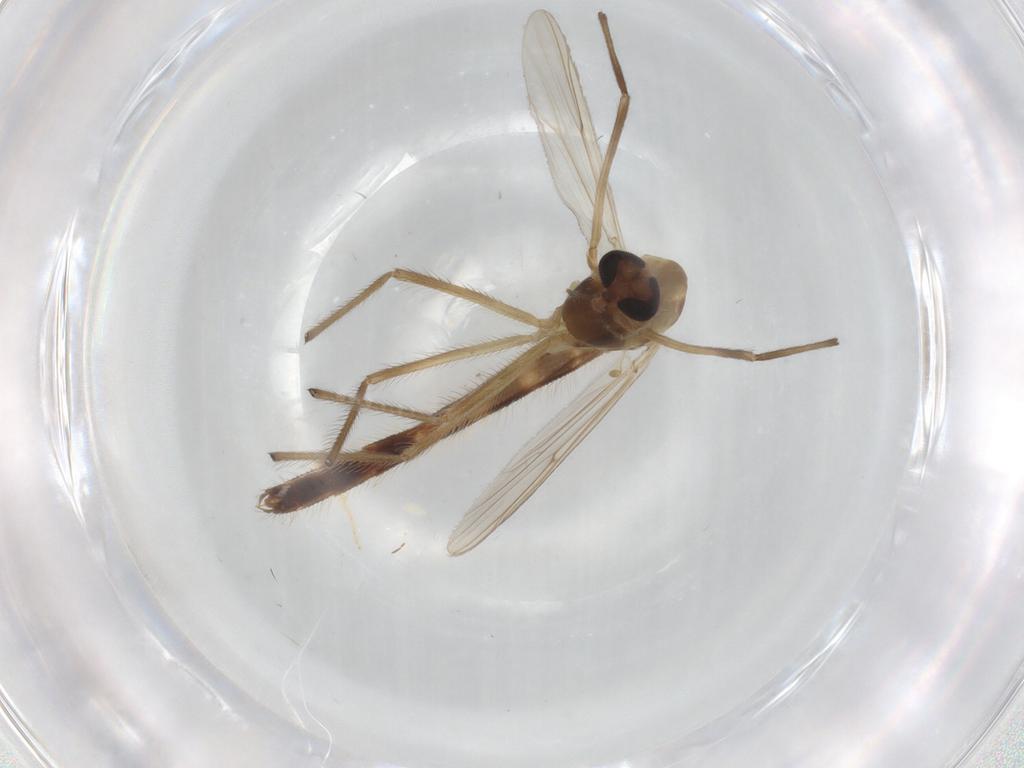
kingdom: Animalia
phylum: Arthropoda
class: Insecta
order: Diptera
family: Chironomidae
